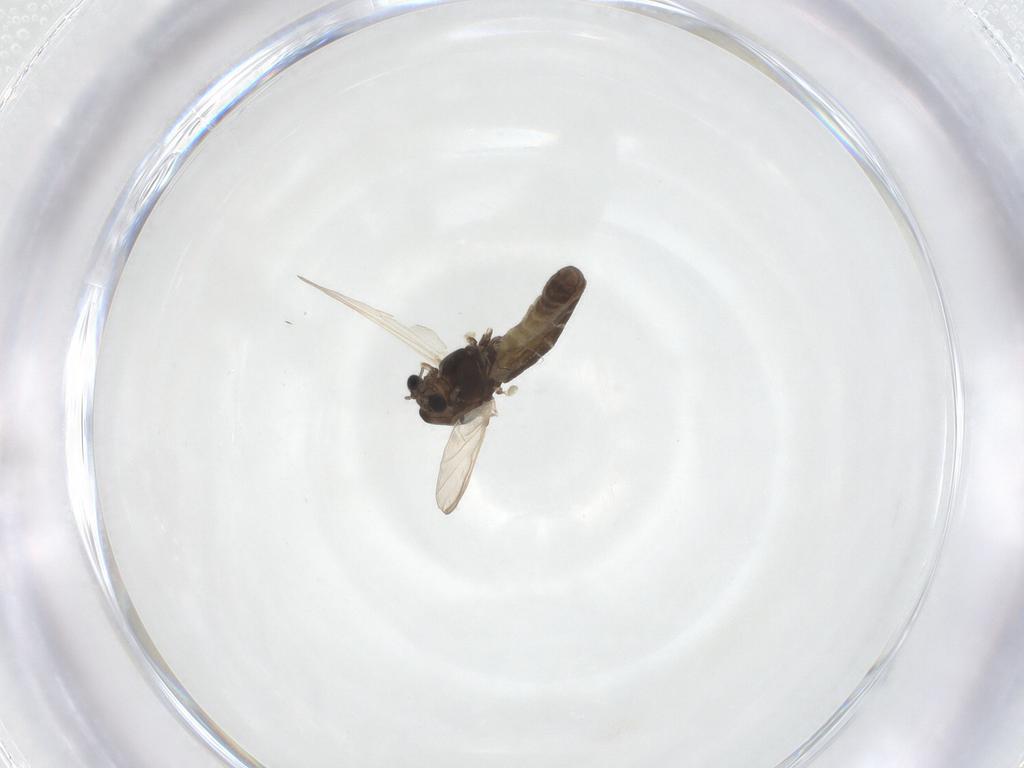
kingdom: Animalia
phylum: Arthropoda
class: Insecta
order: Diptera
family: Chironomidae
